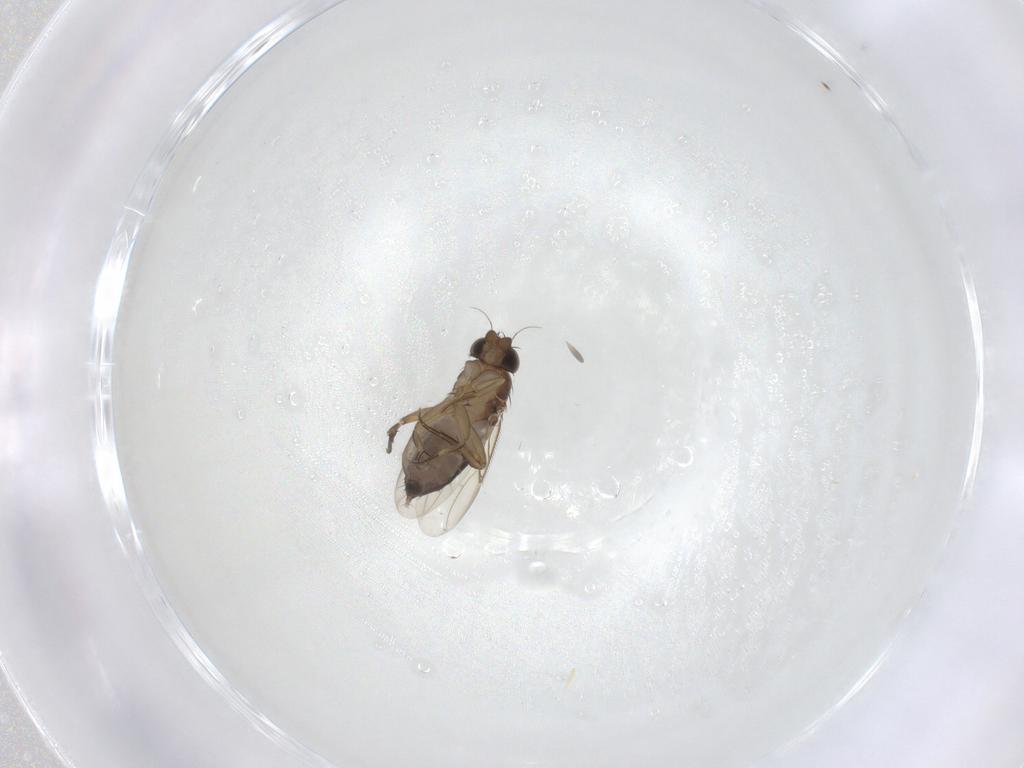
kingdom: Animalia
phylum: Arthropoda
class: Insecta
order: Diptera
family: Phoridae
